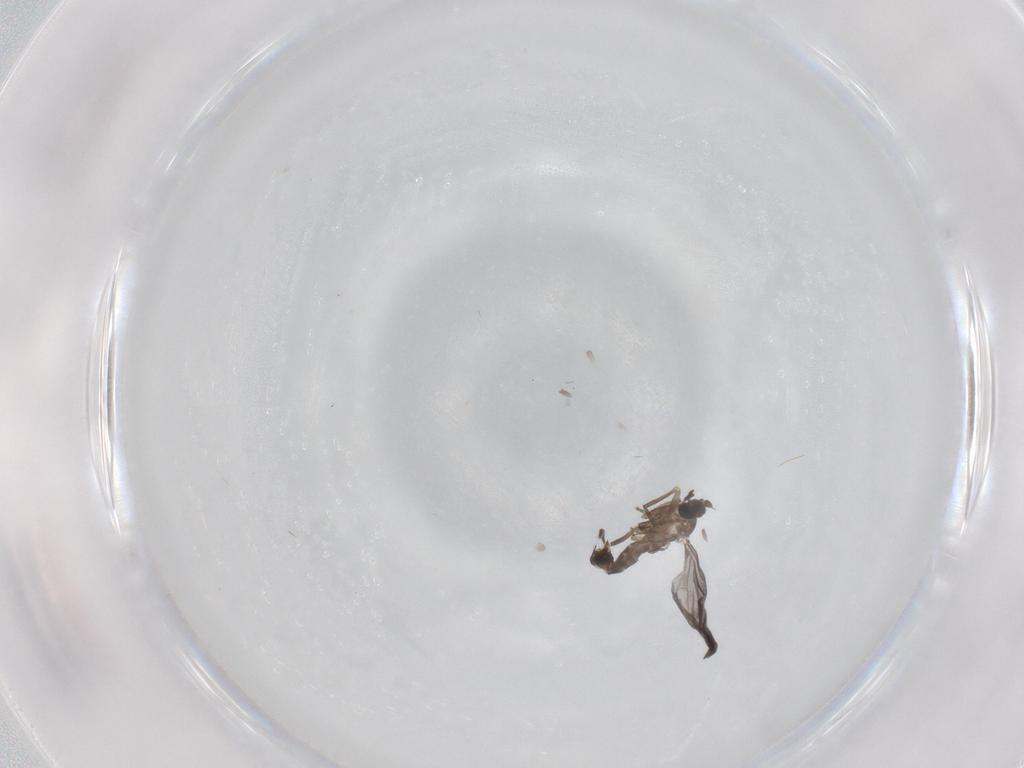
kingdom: Animalia
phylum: Arthropoda
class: Insecta
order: Diptera
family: Phoridae
